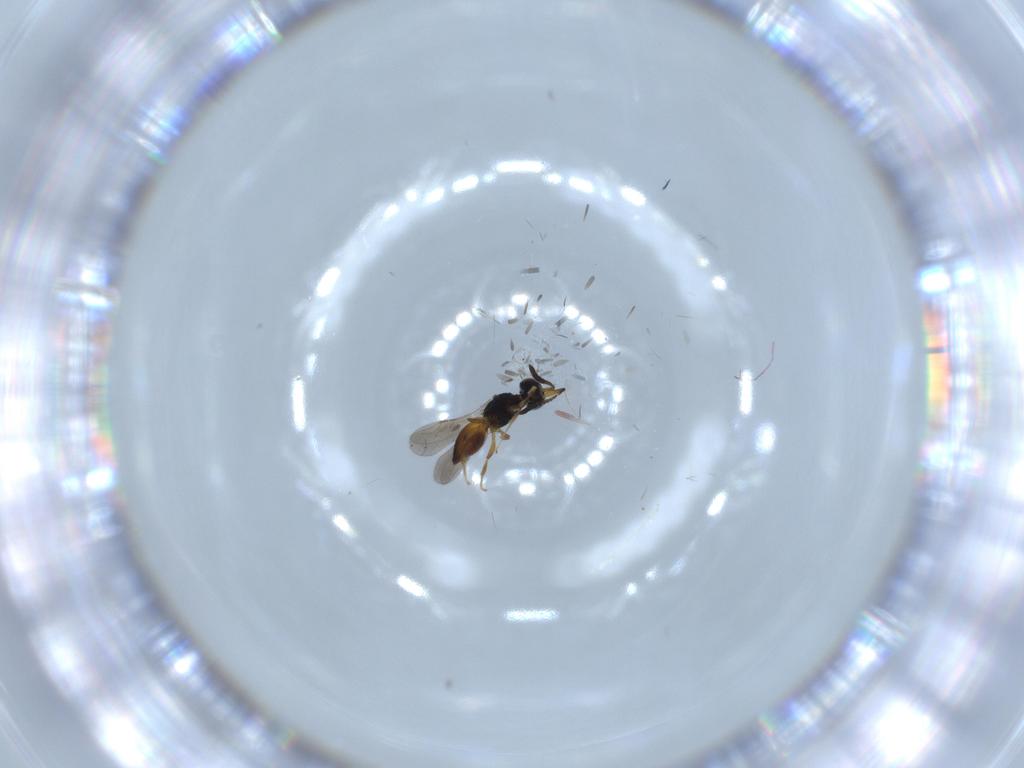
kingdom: Animalia
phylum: Arthropoda
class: Insecta
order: Hymenoptera
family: Ceraphronidae
